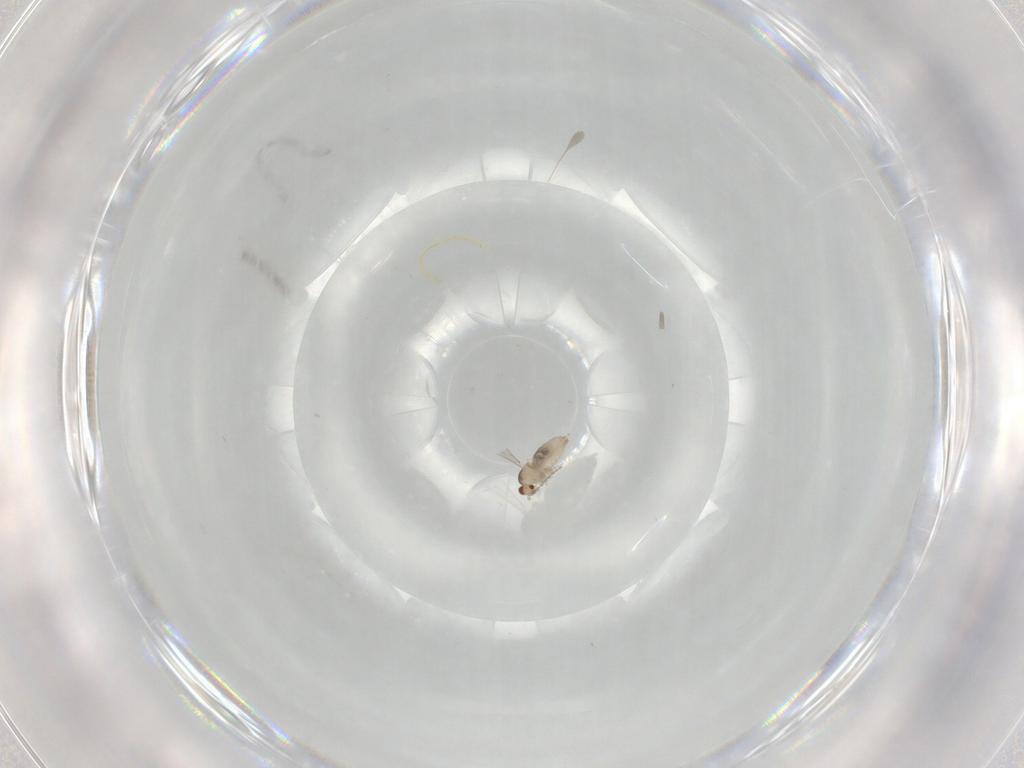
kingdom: Animalia
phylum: Arthropoda
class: Insecta
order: Diptera
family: Cecidomyiidae
